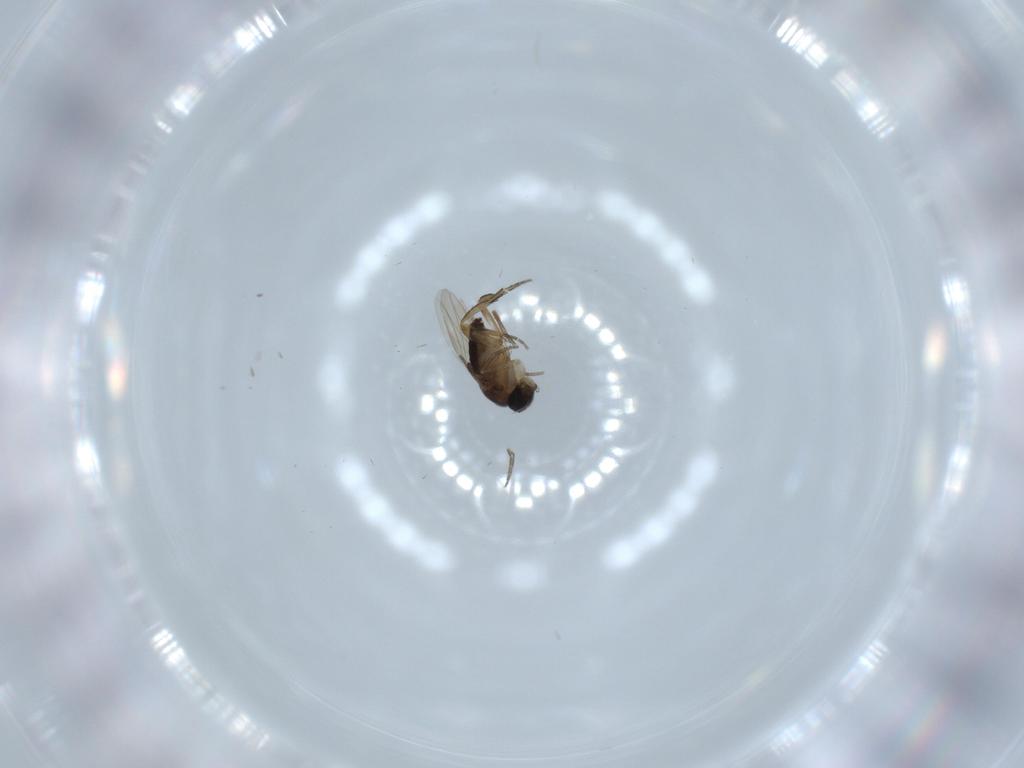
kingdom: Animalia
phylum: Arthropoda
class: Insecta
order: Diptera
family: Phoridae
